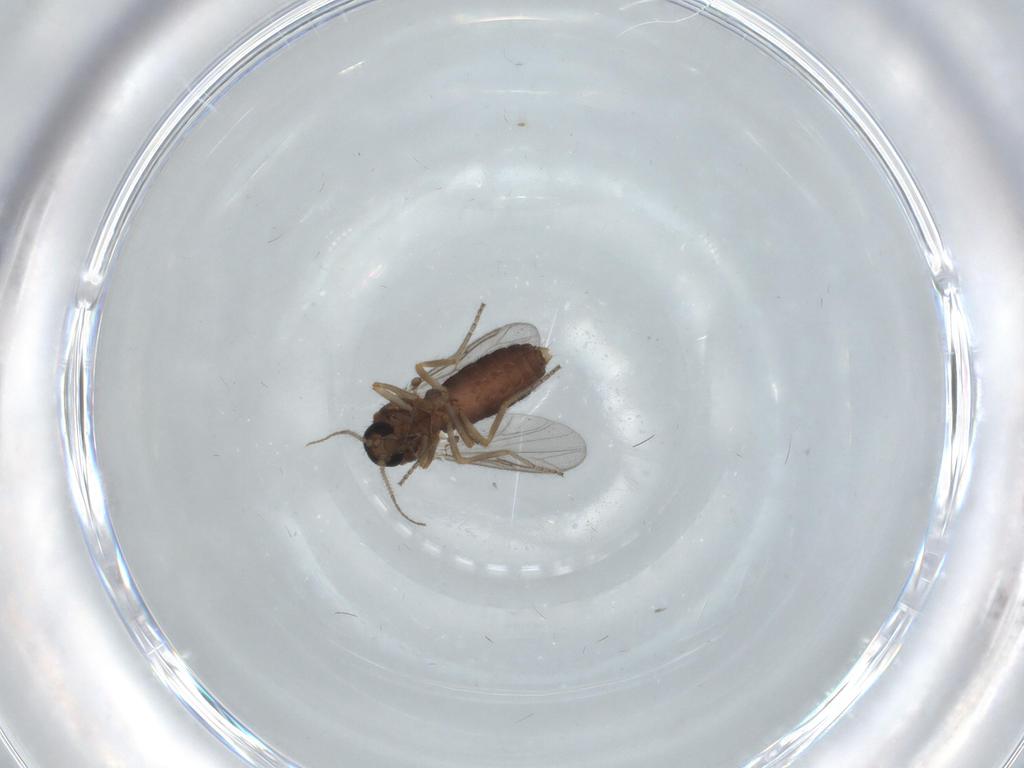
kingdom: Animalia
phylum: Arthropoda
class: Insecta
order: Diptera
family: Ceratopogonidae
